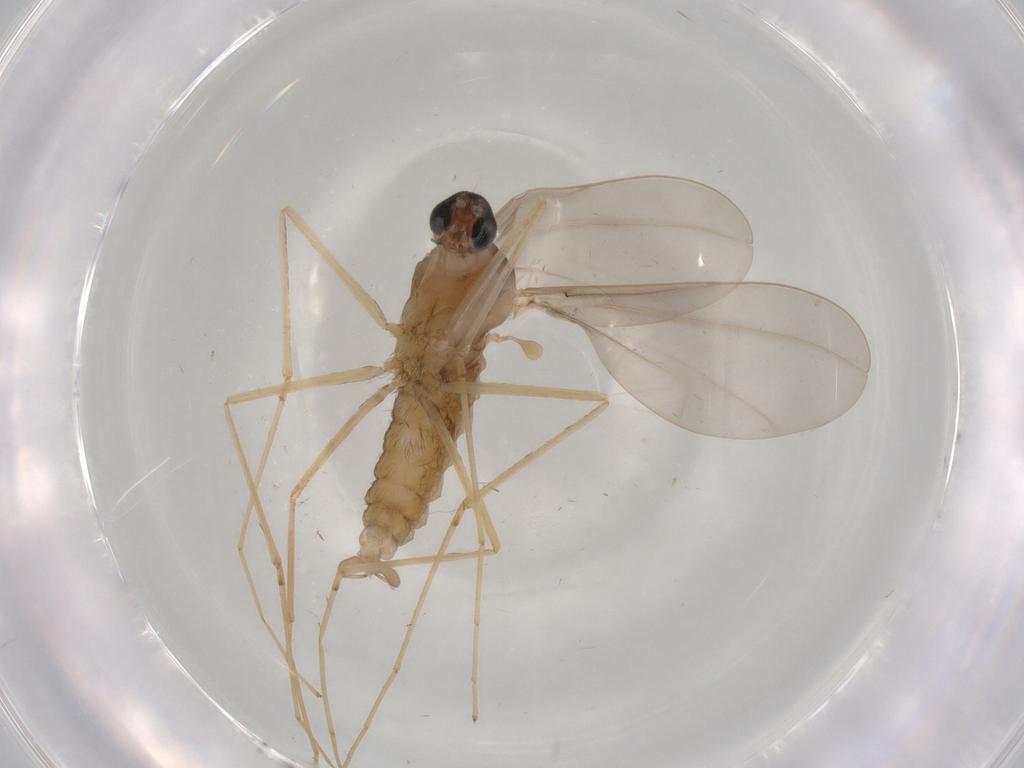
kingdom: Animalia
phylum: Arthropoda
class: Insecta
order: Diptera
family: Cecidomyiidae
